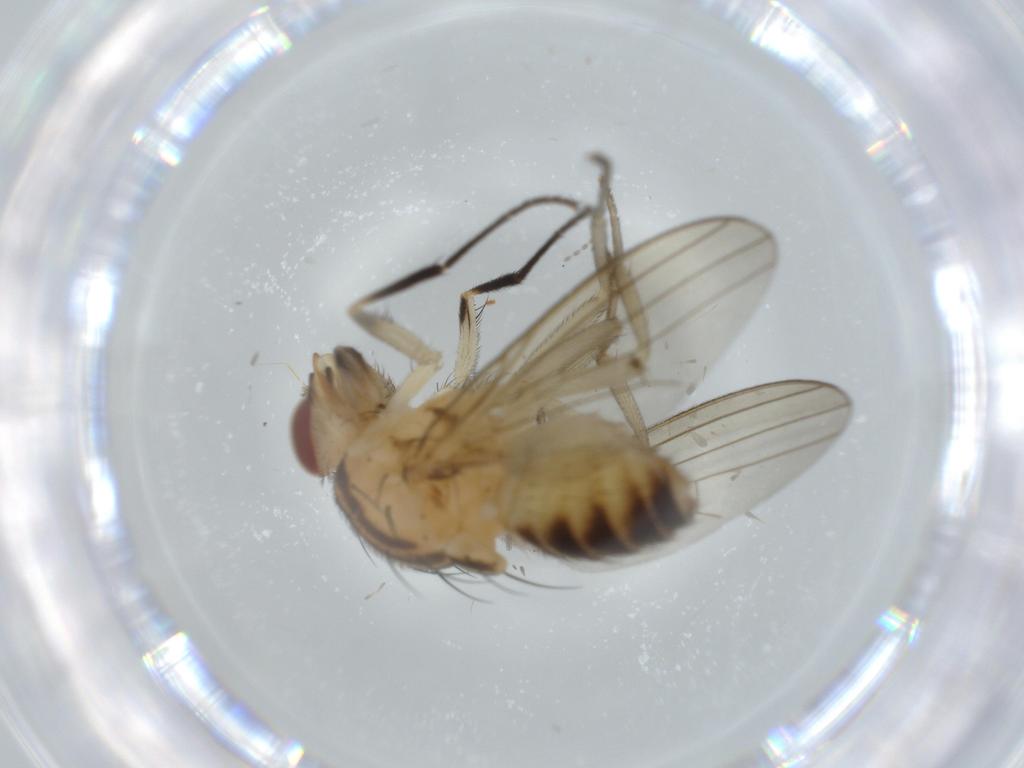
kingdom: Animalia
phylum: Arthropoda
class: Insecta
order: Diptera
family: Cecidomyiidae
